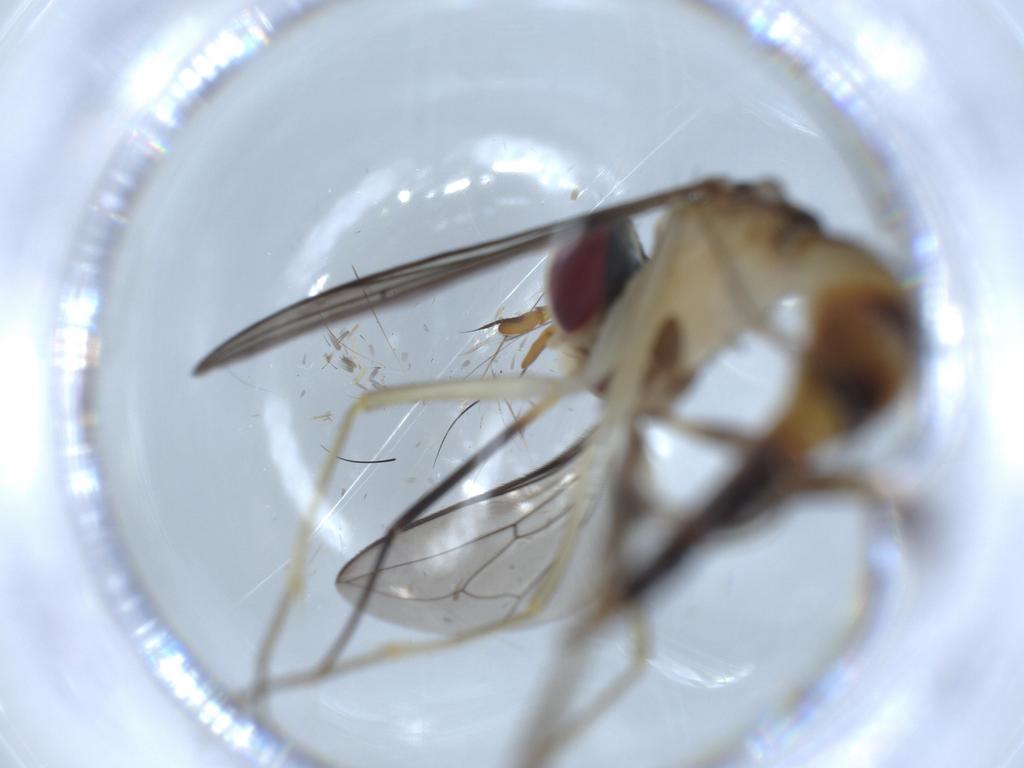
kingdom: Animalia
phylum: Arthropoda
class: Insecta
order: Diptera
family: Conopidae
